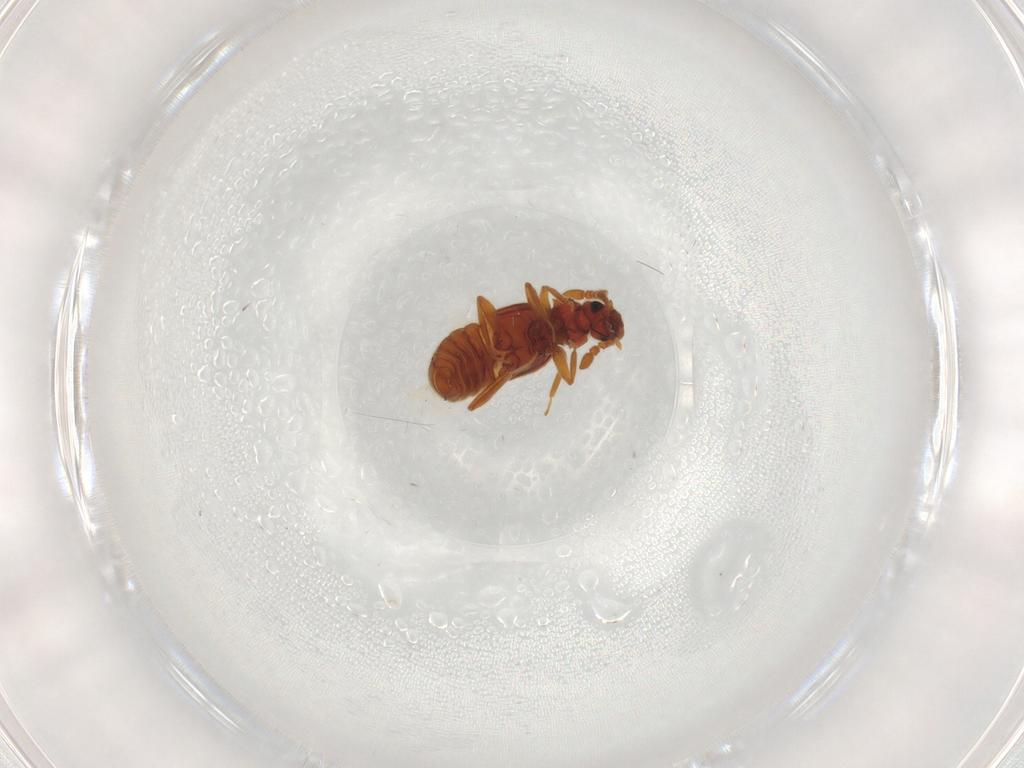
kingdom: Animalia
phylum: Arthropoda
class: Insecta
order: Coleoptera
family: Staphylinidae
